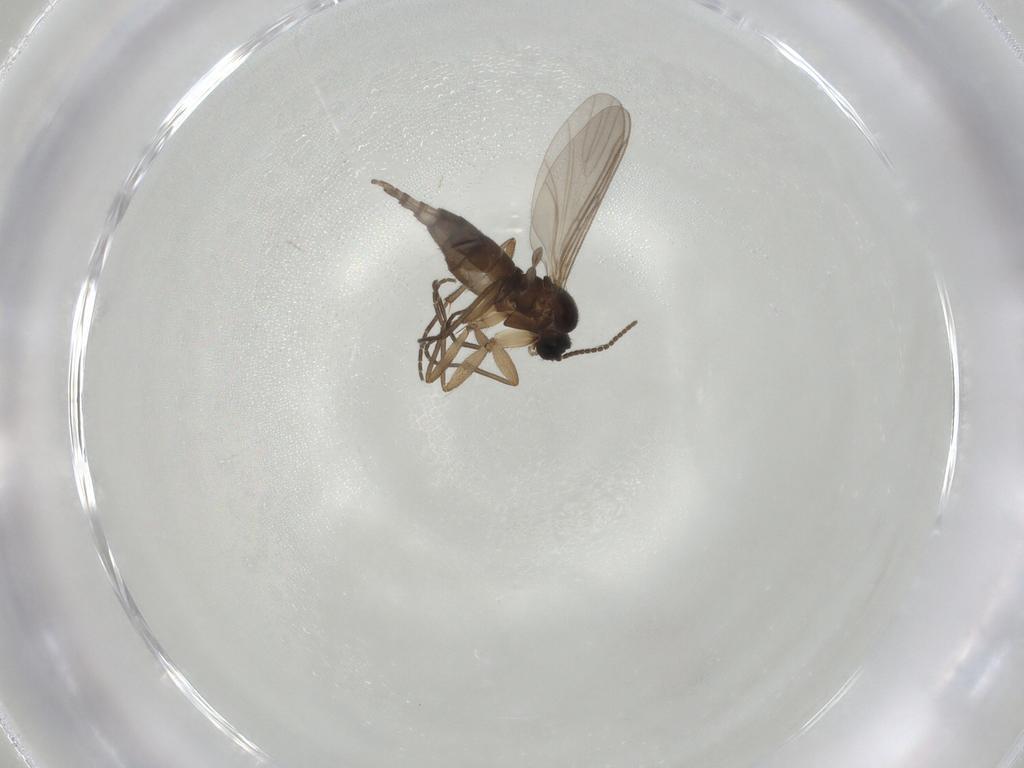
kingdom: Animalia
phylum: Arthropoda
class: Insecta
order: Diptera
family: Sciaridae
